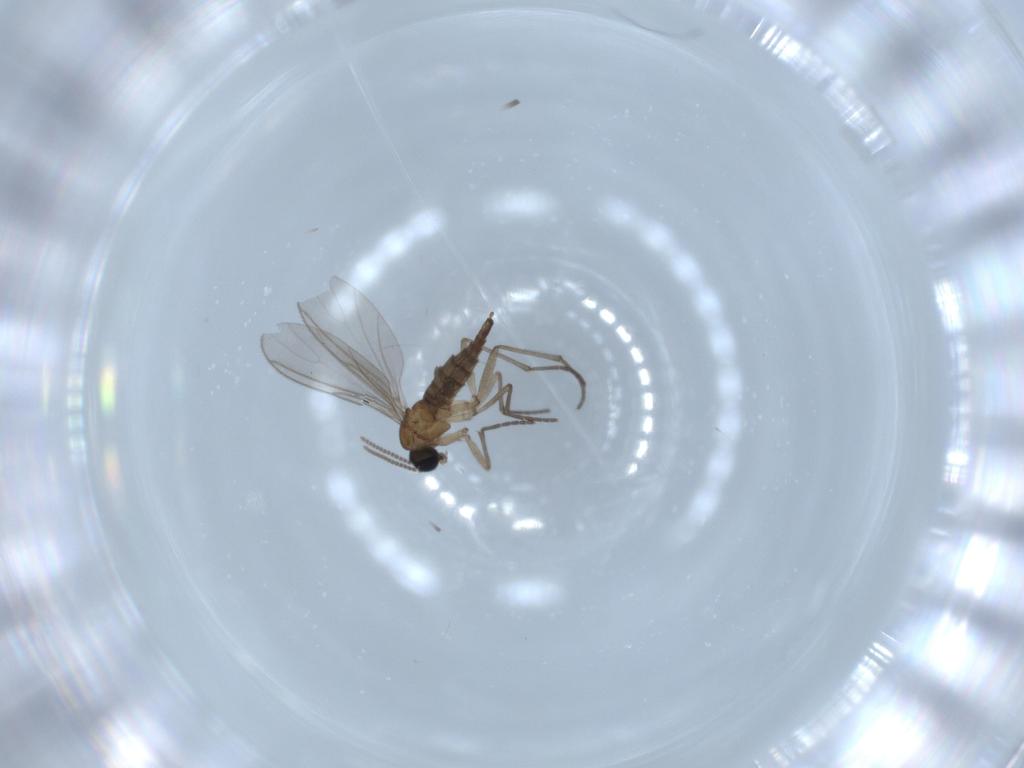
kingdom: Animalia
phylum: Arthropoda
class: Insecta
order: Diptera
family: Sciaridae
